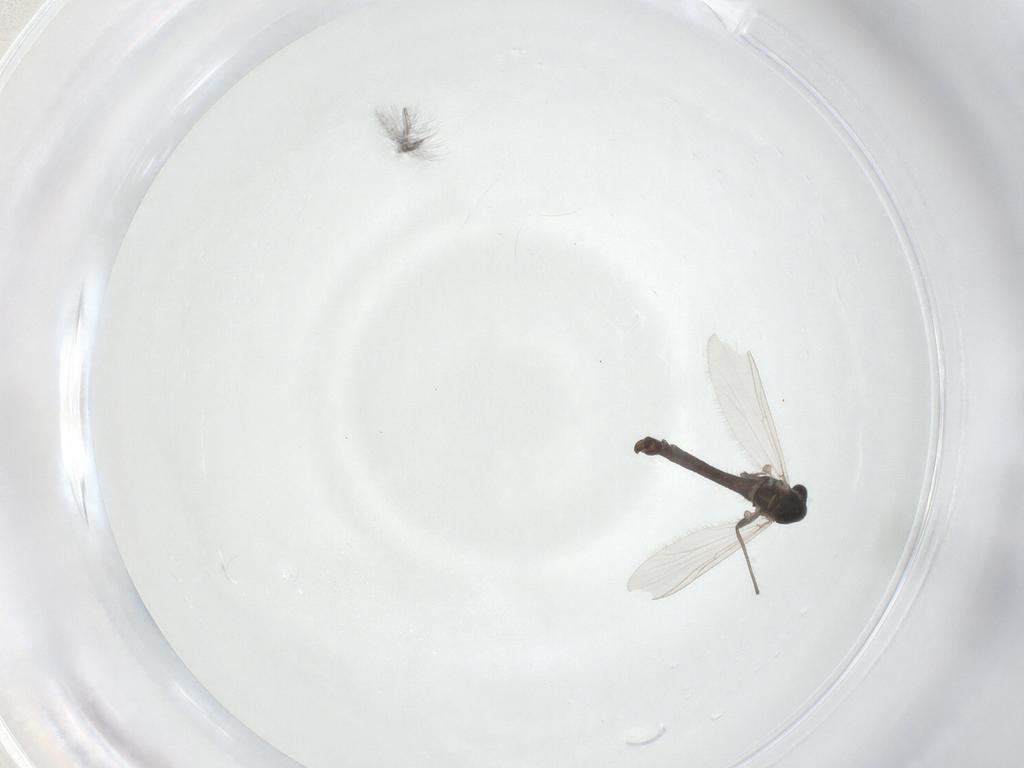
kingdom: Animalia
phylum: Arthropoda
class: Insecta
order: Diptera
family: Chironomidae
